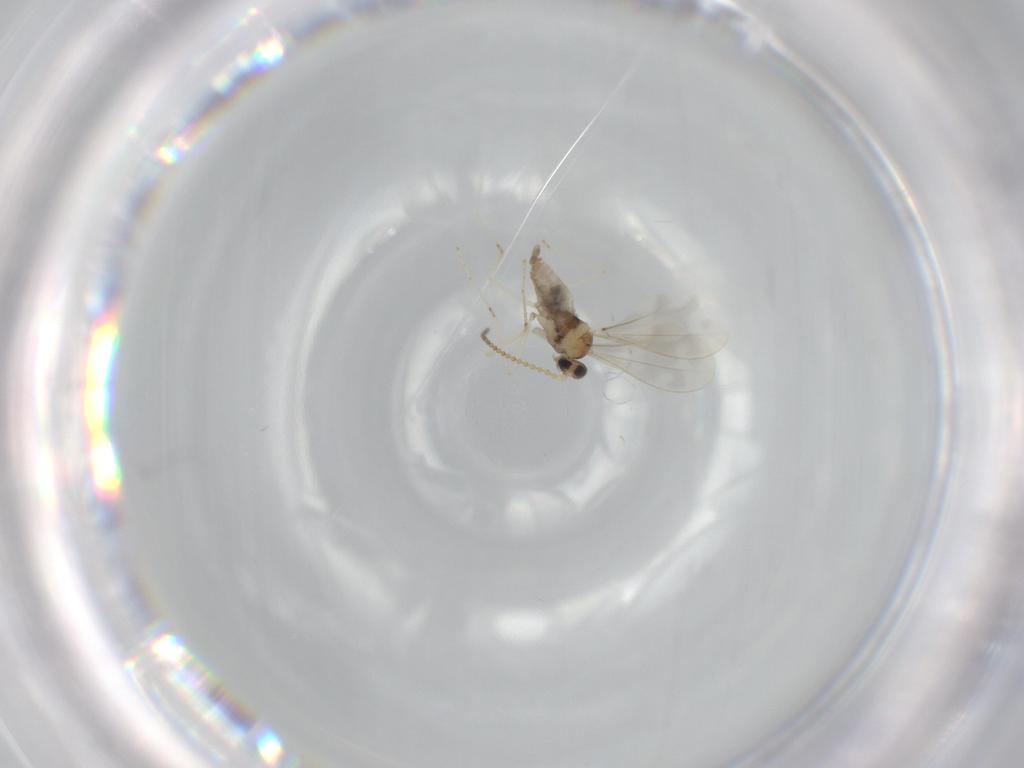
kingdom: Animalia
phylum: Arthropoda
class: Insecta
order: Diptera
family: Cecidomyiidae
